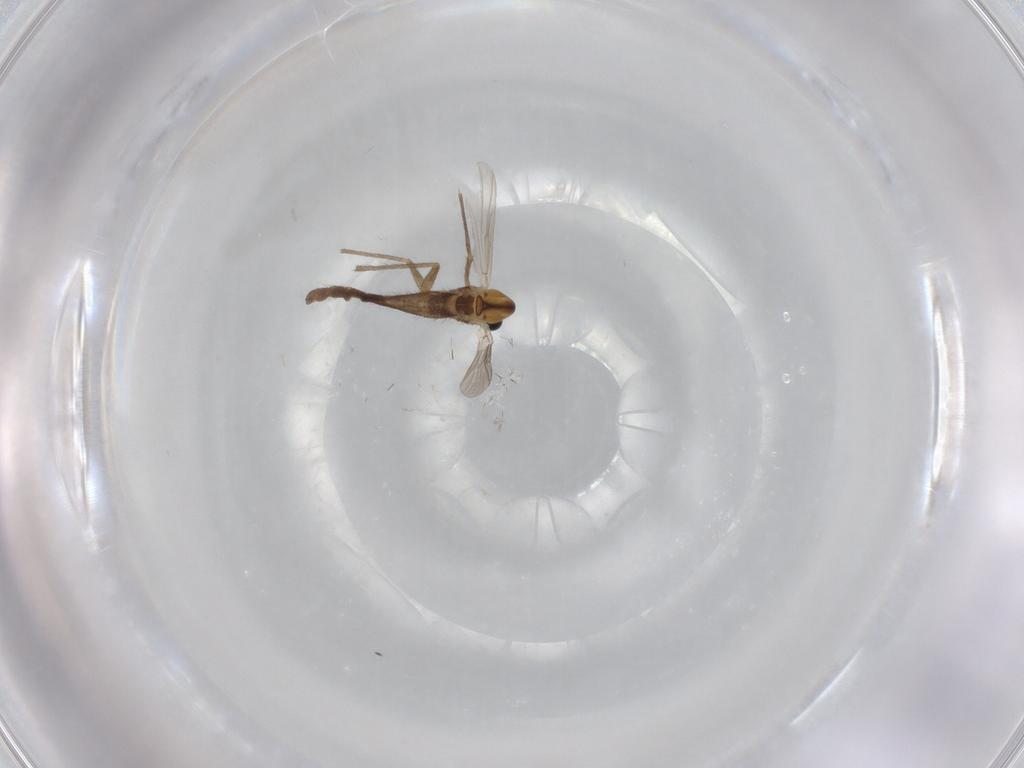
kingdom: Animalia
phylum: Arthropoda
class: Insecta
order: Diptera
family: Chironomidae
